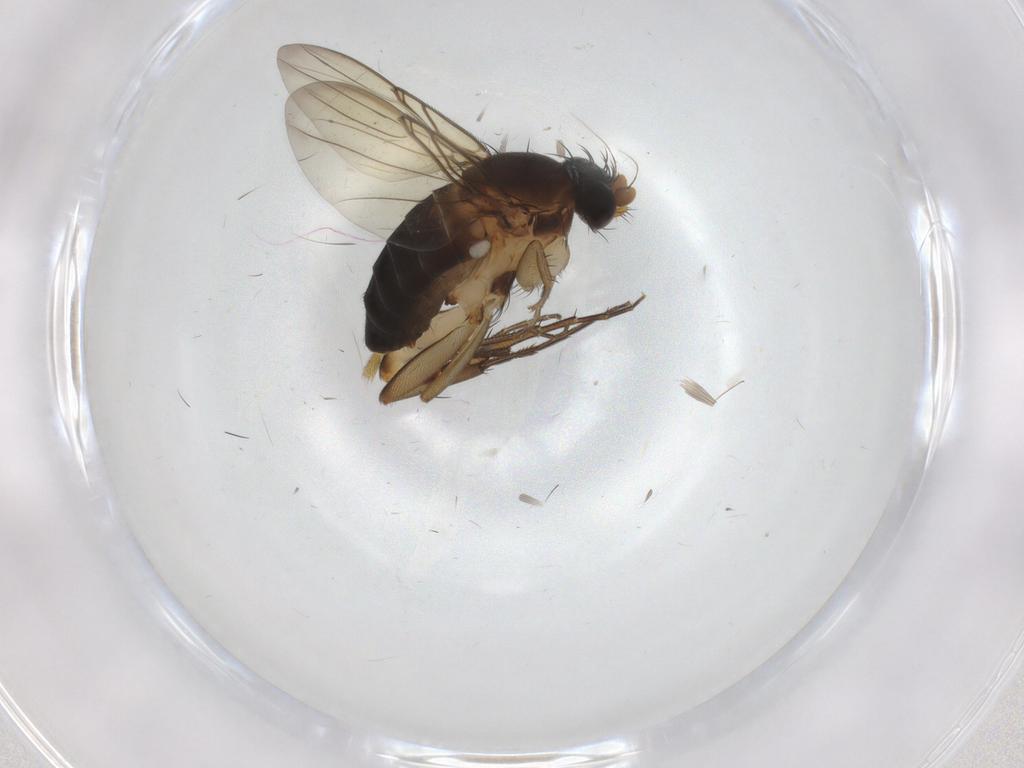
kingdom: Animalia
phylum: Arthropoda
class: Insecta
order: Diptera
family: Phoridae
